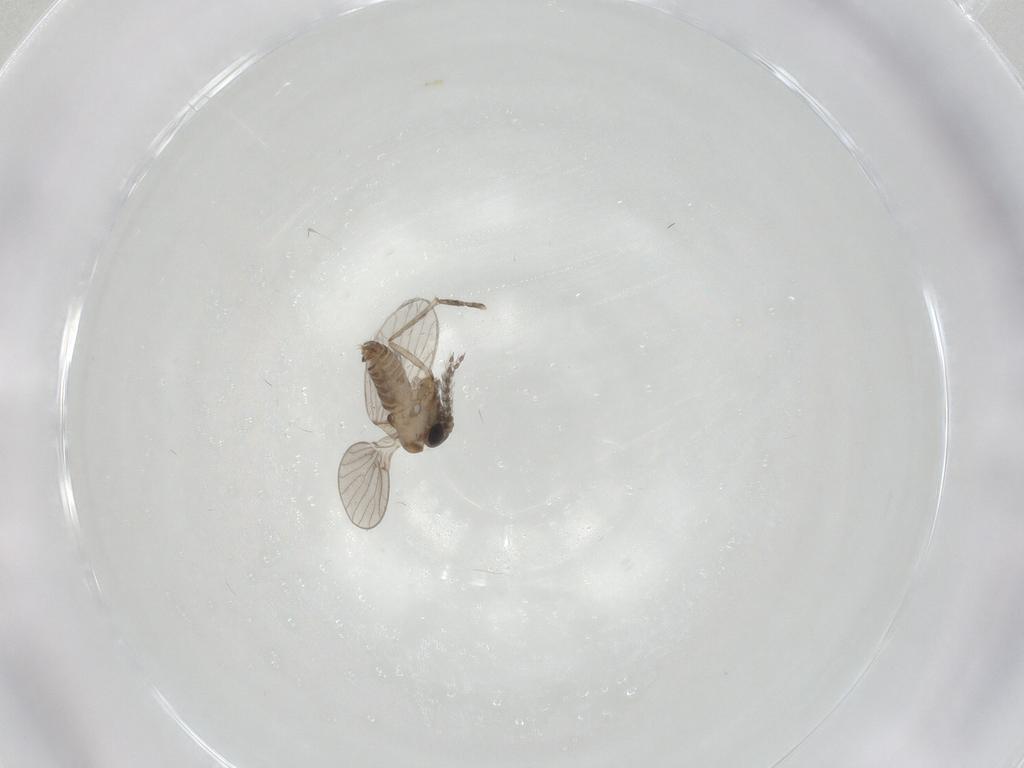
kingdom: Animalia
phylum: Arthropoda
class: Insecta
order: Diptera
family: Psychodidae
